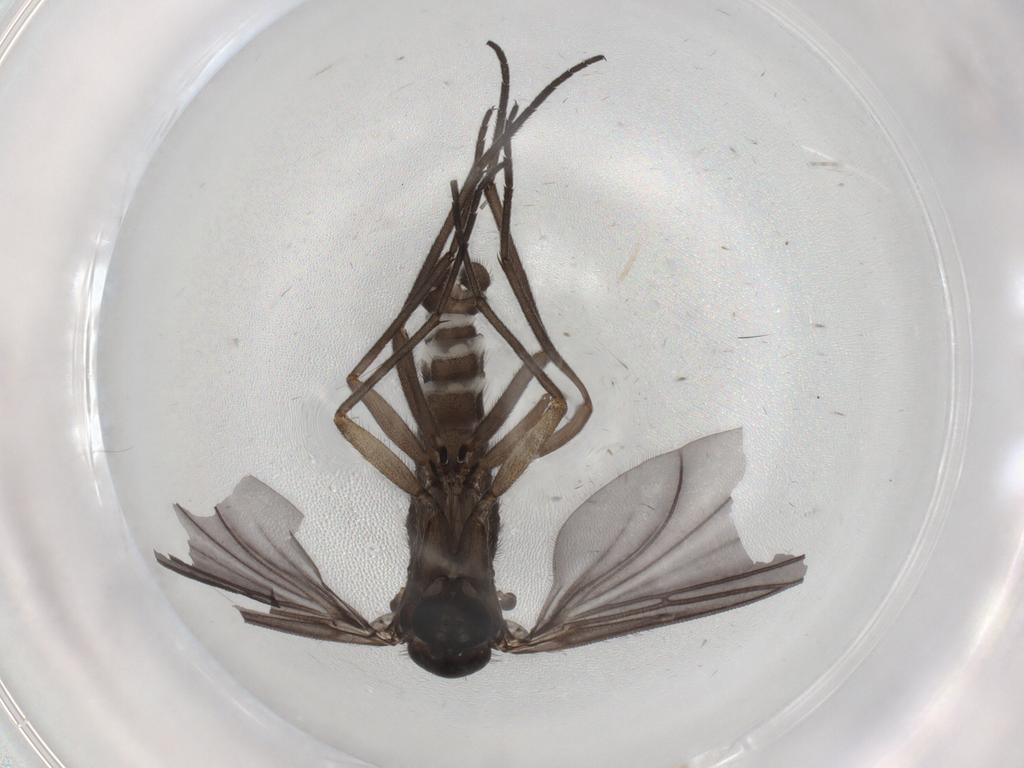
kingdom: Animalia
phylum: Arthropoda
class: Insecta
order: Diptera
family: Sciaridae
